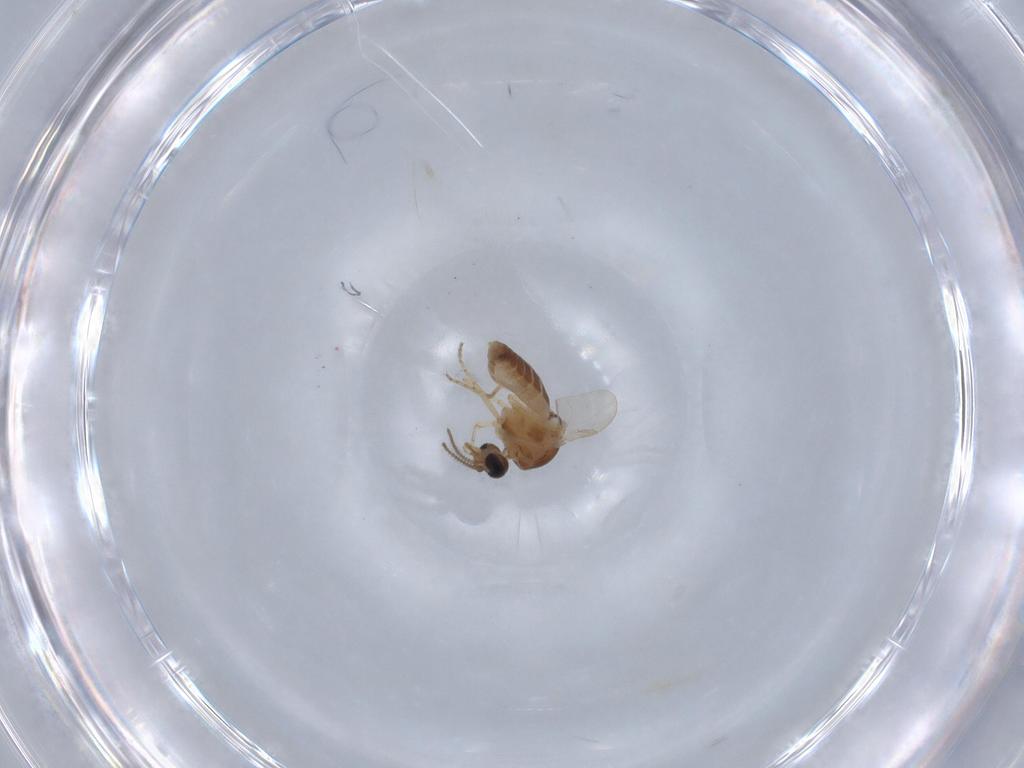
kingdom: Animalia
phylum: Arthropoda
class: Insecta
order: Diptera
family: Ceratopogonidae
